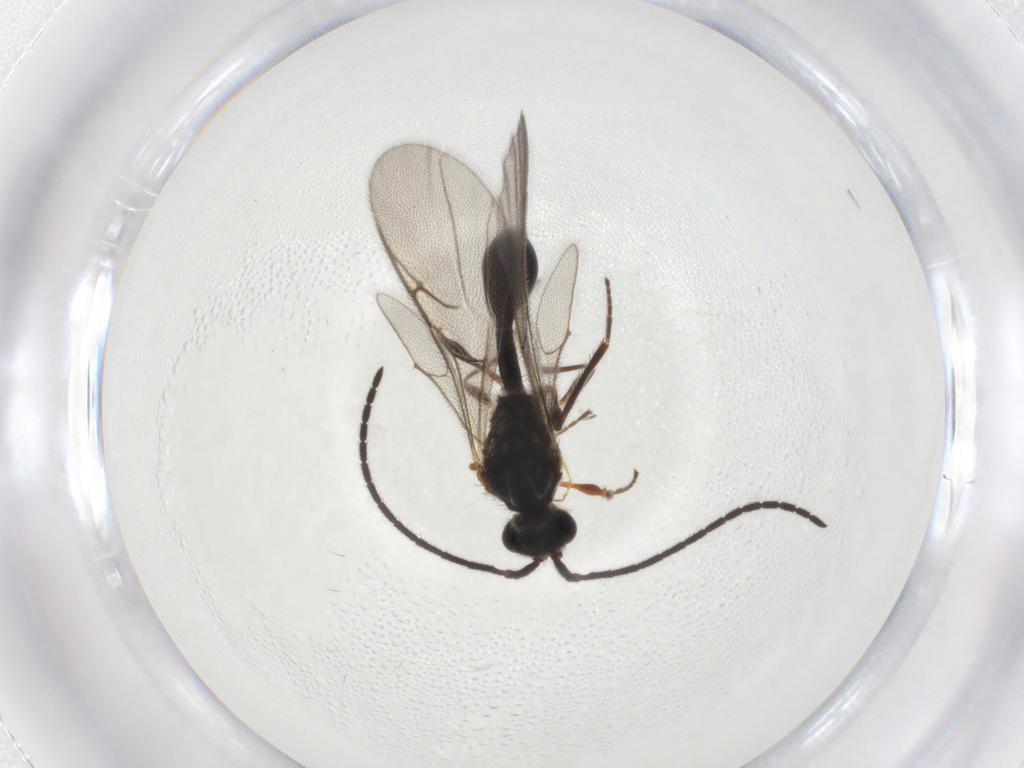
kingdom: Animalia
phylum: Arthropoda
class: Insecta
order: Hymenoptera
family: Diapriidae
